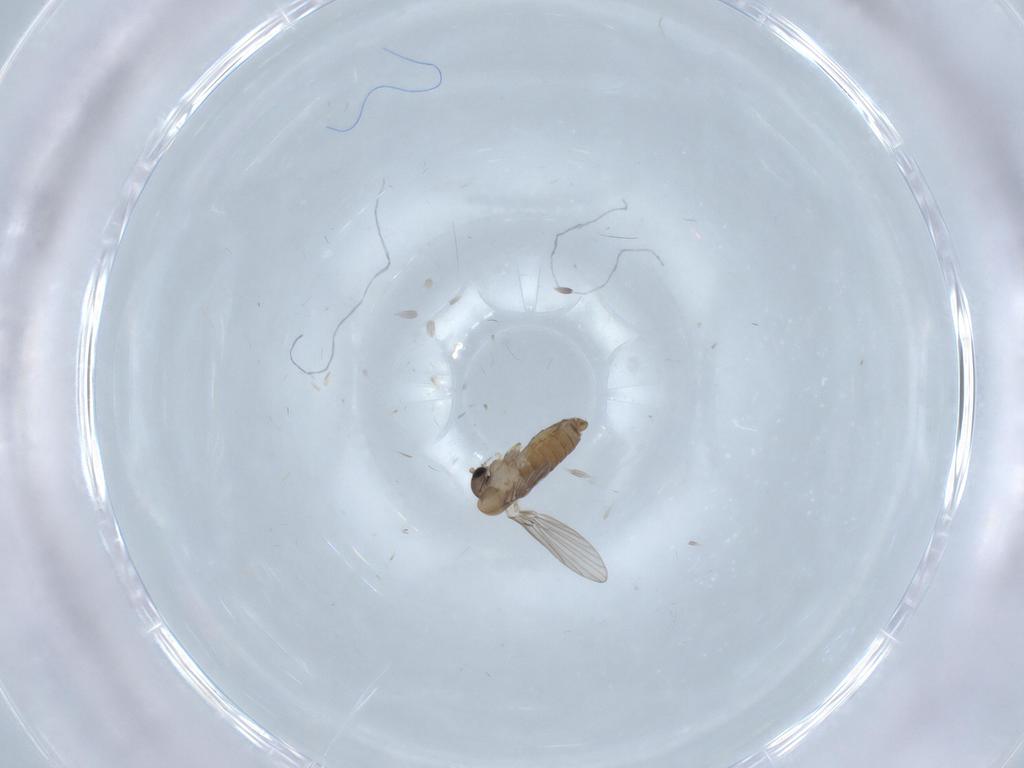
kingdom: Animalia
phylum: Arthropoda
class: Insecta
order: Diptera
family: Psychodidae
